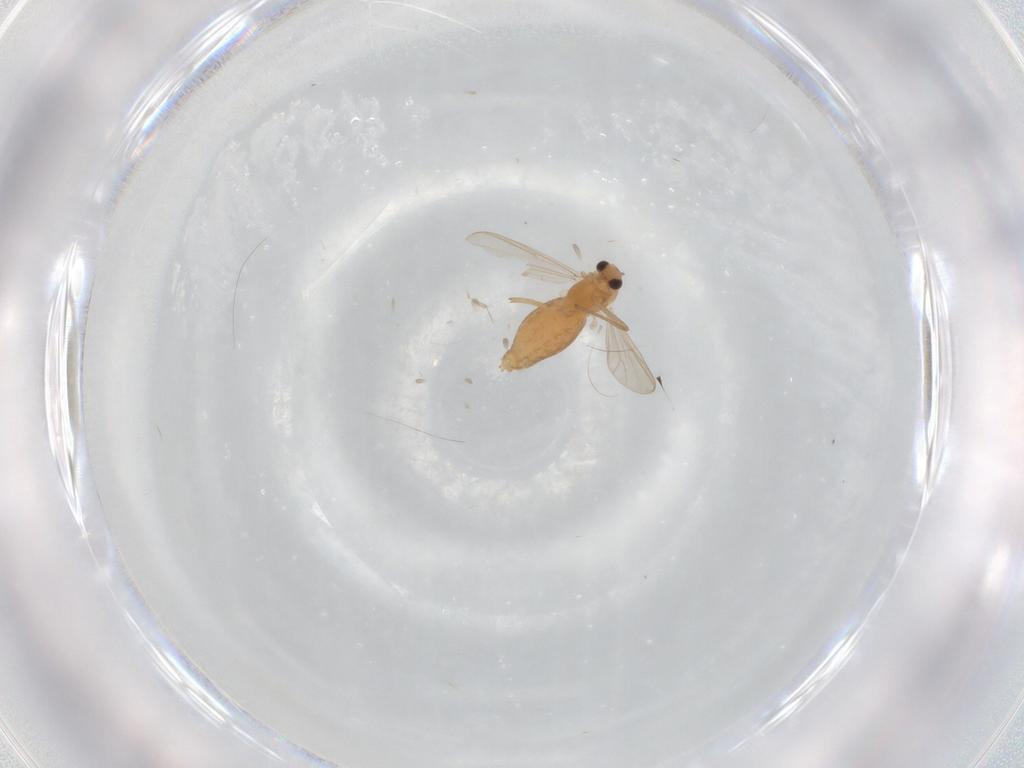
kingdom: Animalia
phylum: Arthropoda
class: Insecta
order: Diptera
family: Chironomidae
